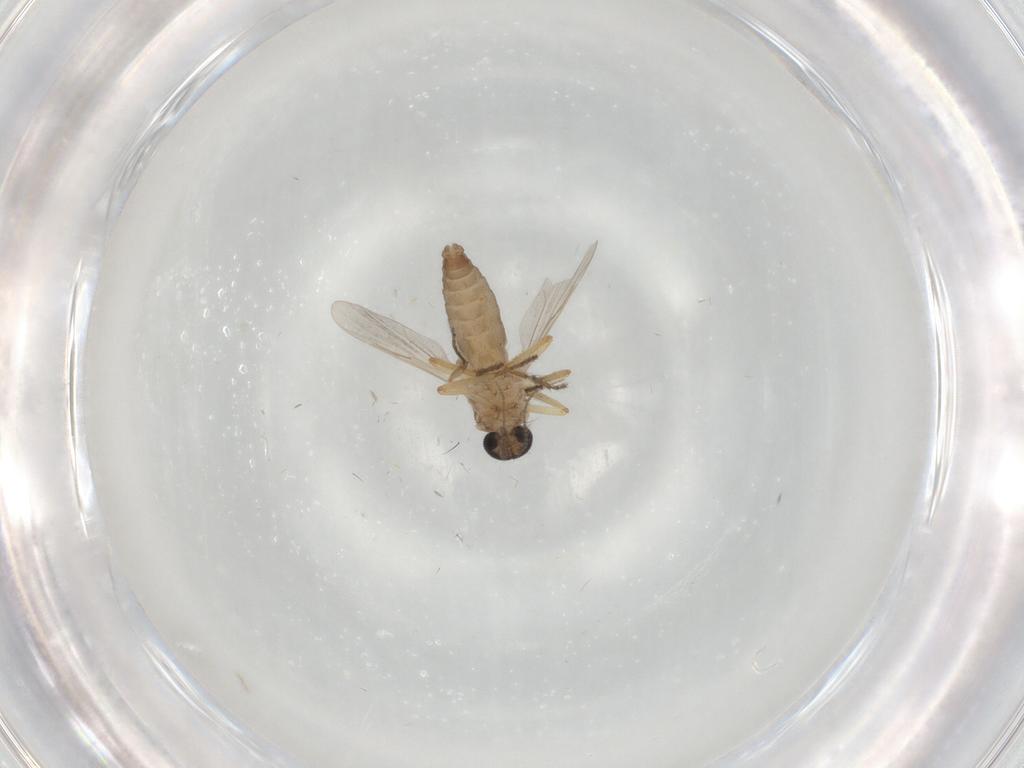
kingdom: Animalia
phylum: Arthropoda
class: Insecta
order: Diptera
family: Ceratopogonidae
